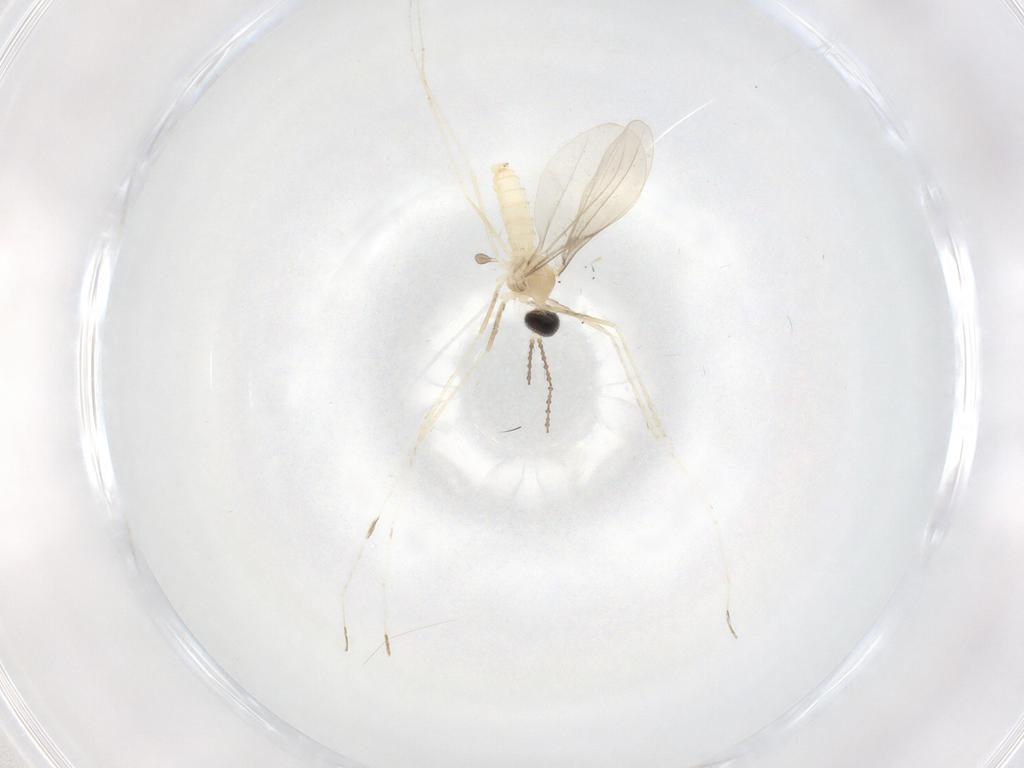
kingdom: Animalia
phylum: Arthropoda
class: Insecta
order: Diptera
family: Cecidomyiidae
